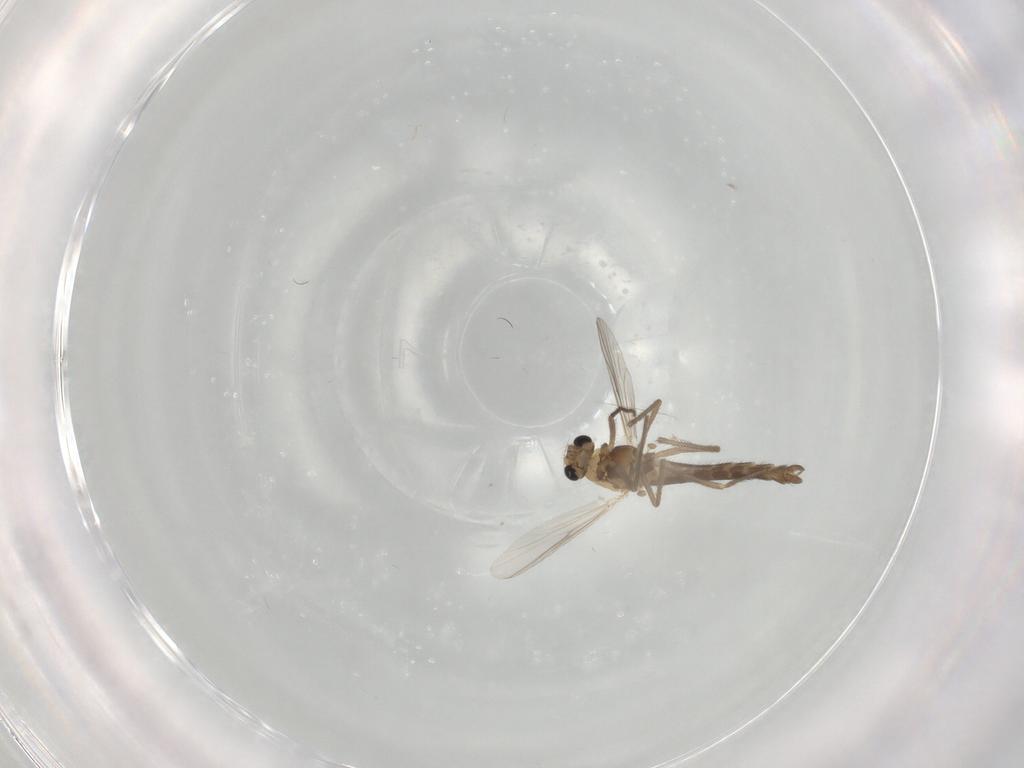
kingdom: Animalia
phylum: Arthropoda
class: Insecta
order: Diptera
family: Chironomidae
